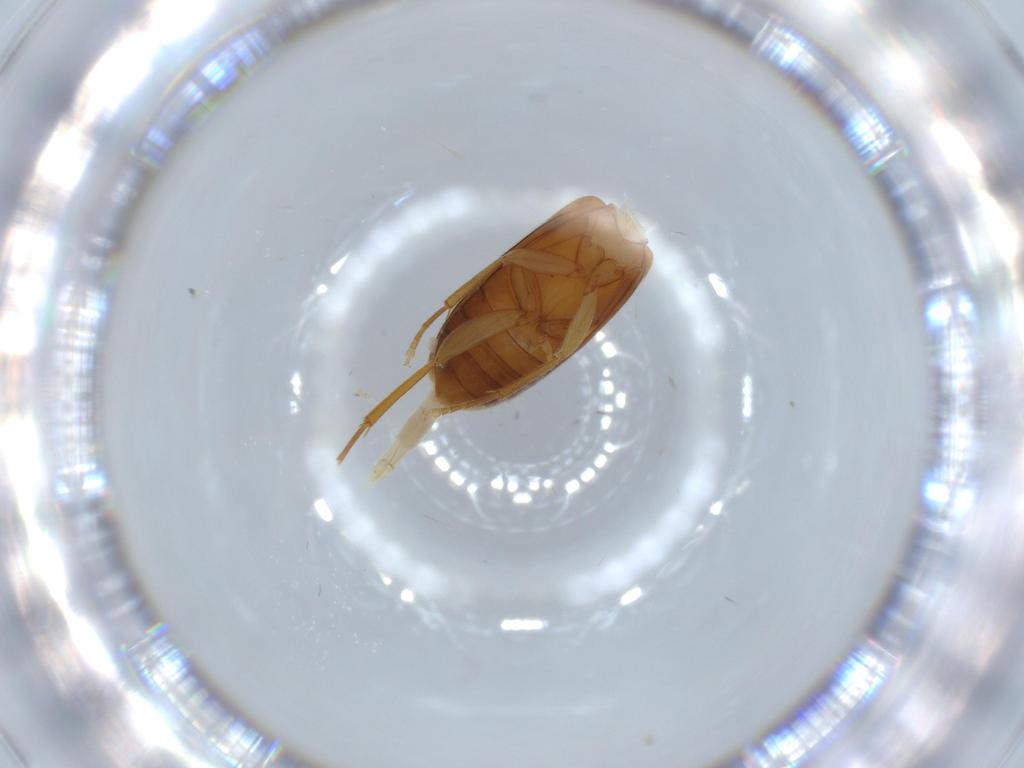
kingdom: Animalia
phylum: Arthropoda
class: Insecta
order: Coleoptera
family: Scraptiidae
